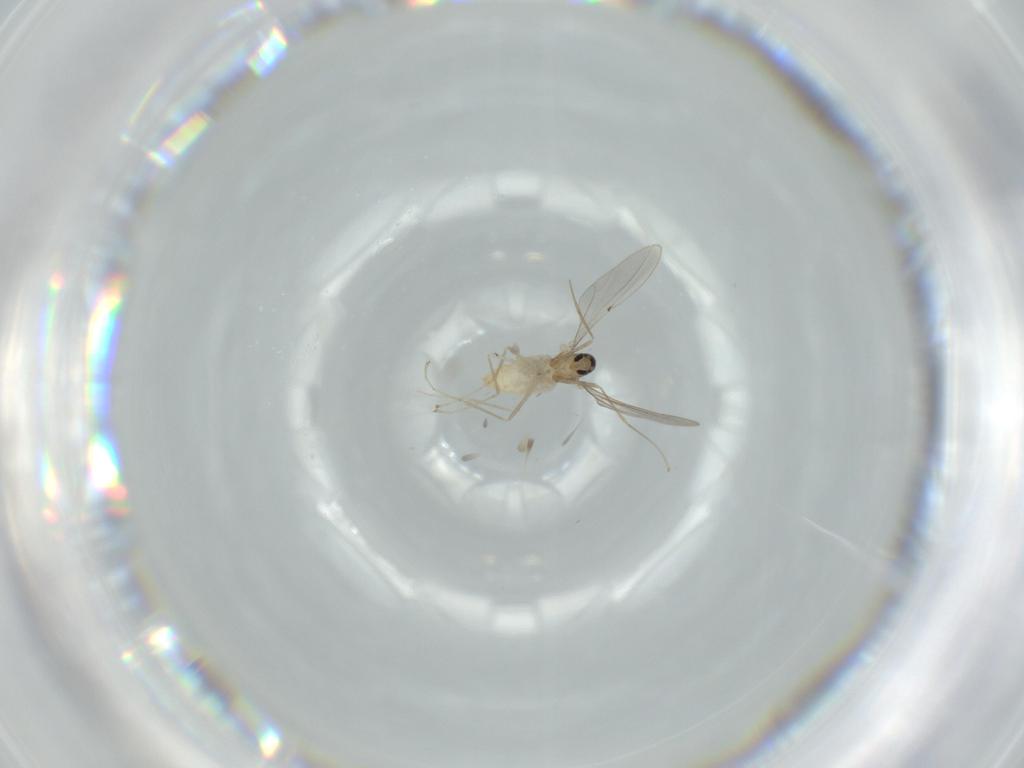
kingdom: Animalia
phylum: Arthropoda
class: Insecta
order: Diptera
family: Cecidomyiidae
